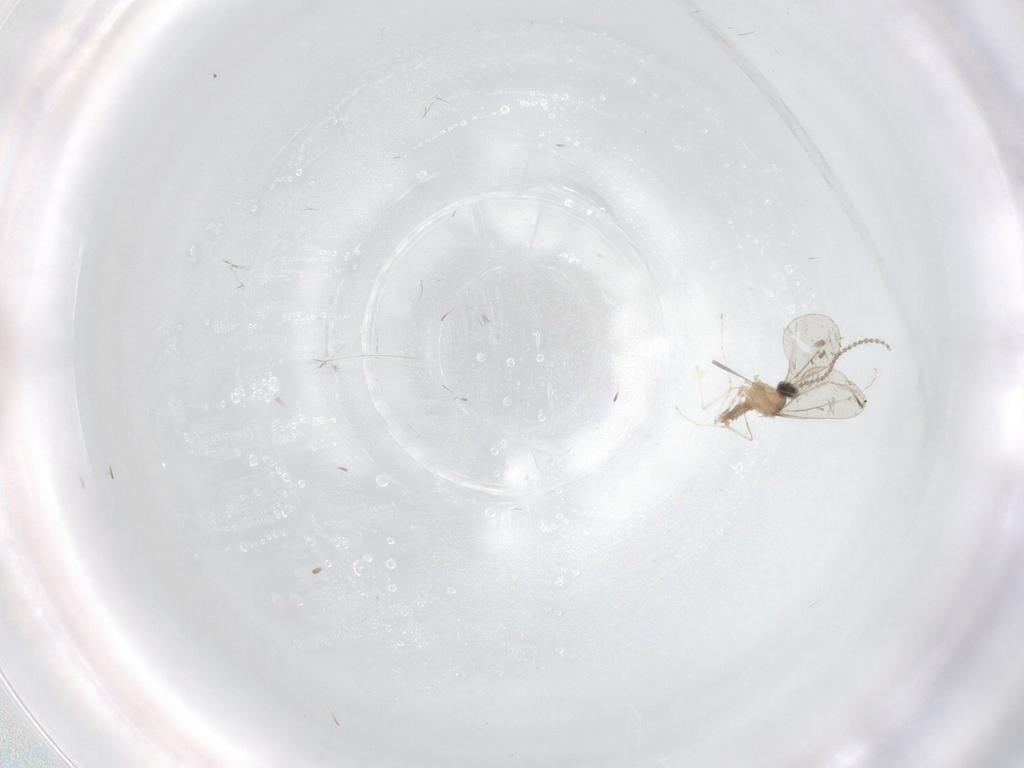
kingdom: Animalia
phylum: Arthropoda
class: Insecta
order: Diptera
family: Cecidomyiidae
